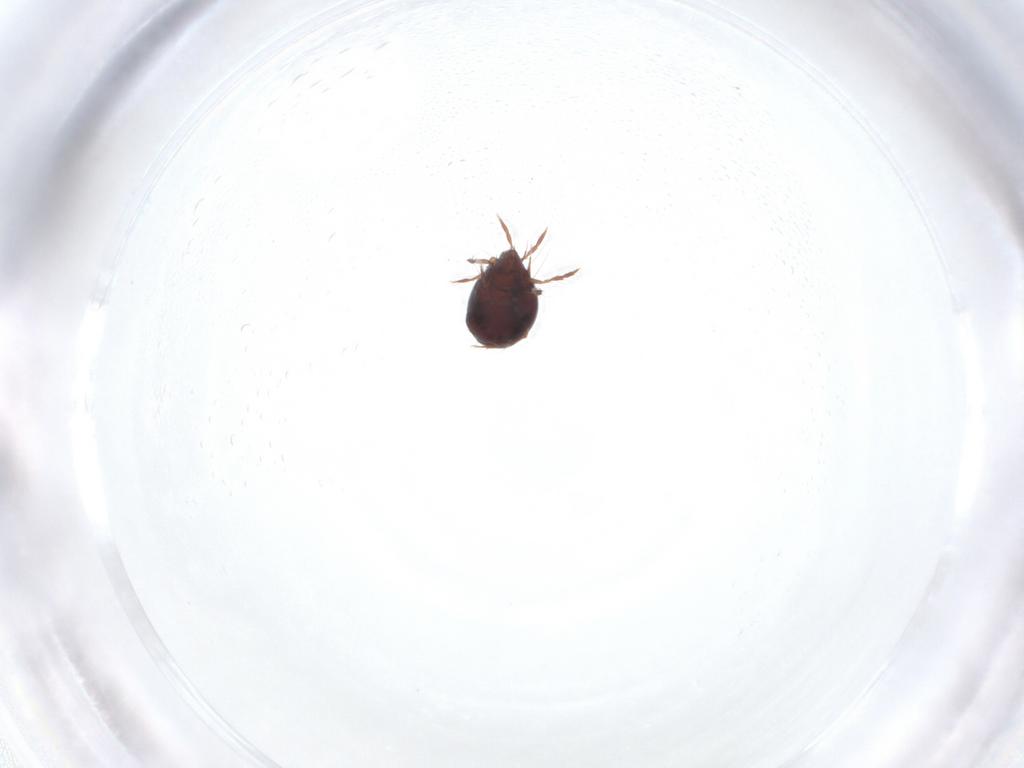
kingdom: Animalia
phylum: Arthropoda
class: Arachnida
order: Sarcoptiformes
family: Ceratoppiidae
